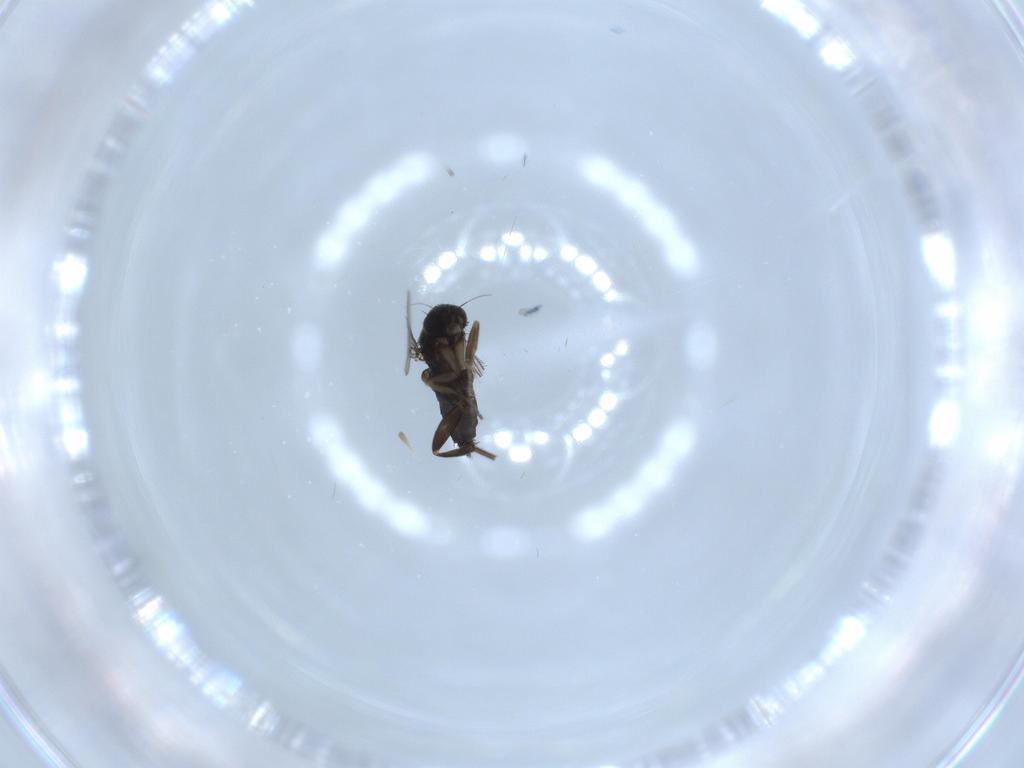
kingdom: Animalia
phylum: Arthropoda
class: Insecta
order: Diptera
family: Phoridae
